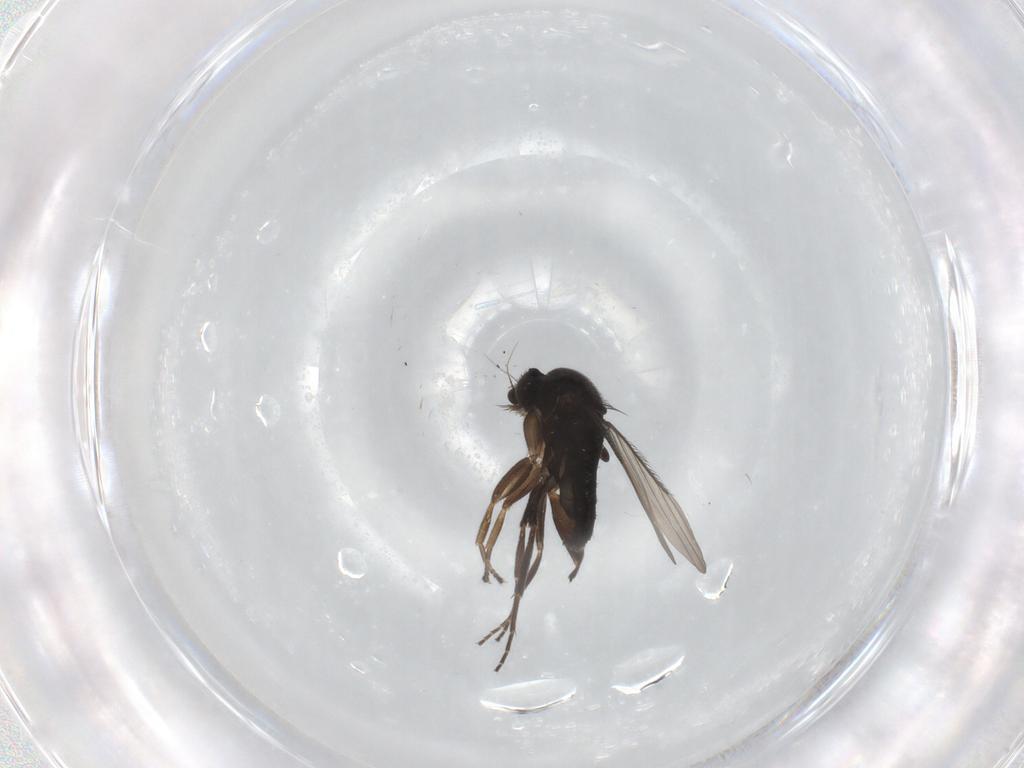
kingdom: Animalia
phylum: Arthropoda
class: Insecta
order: Diptera
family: Phoridae
